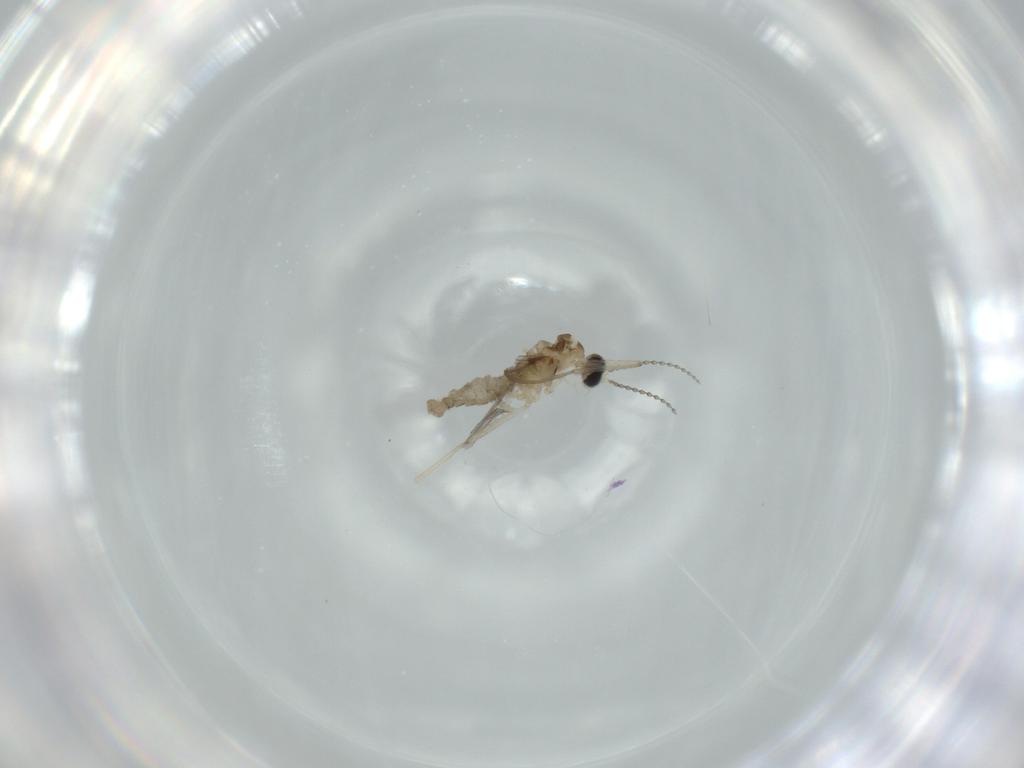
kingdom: Animalia
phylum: Arthropoda
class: Insecta
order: Diptera
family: Cecidomyiidae
